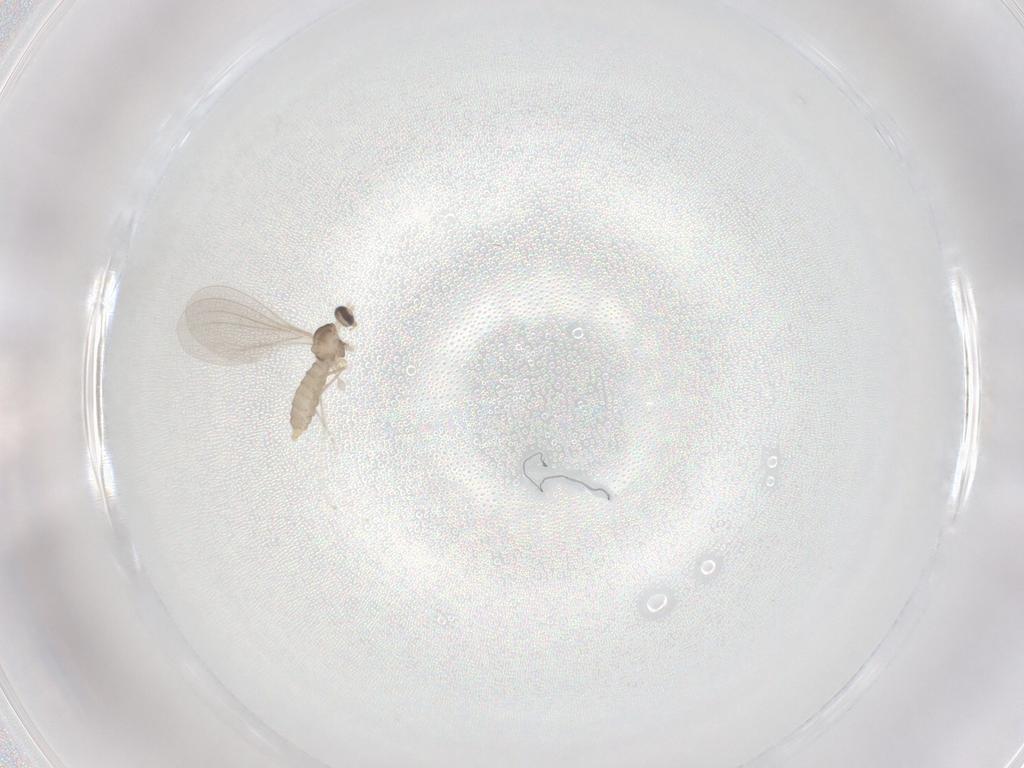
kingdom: Animalia
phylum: Arthropoda
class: Insecta
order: Diptera
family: Cecidomyiidae
